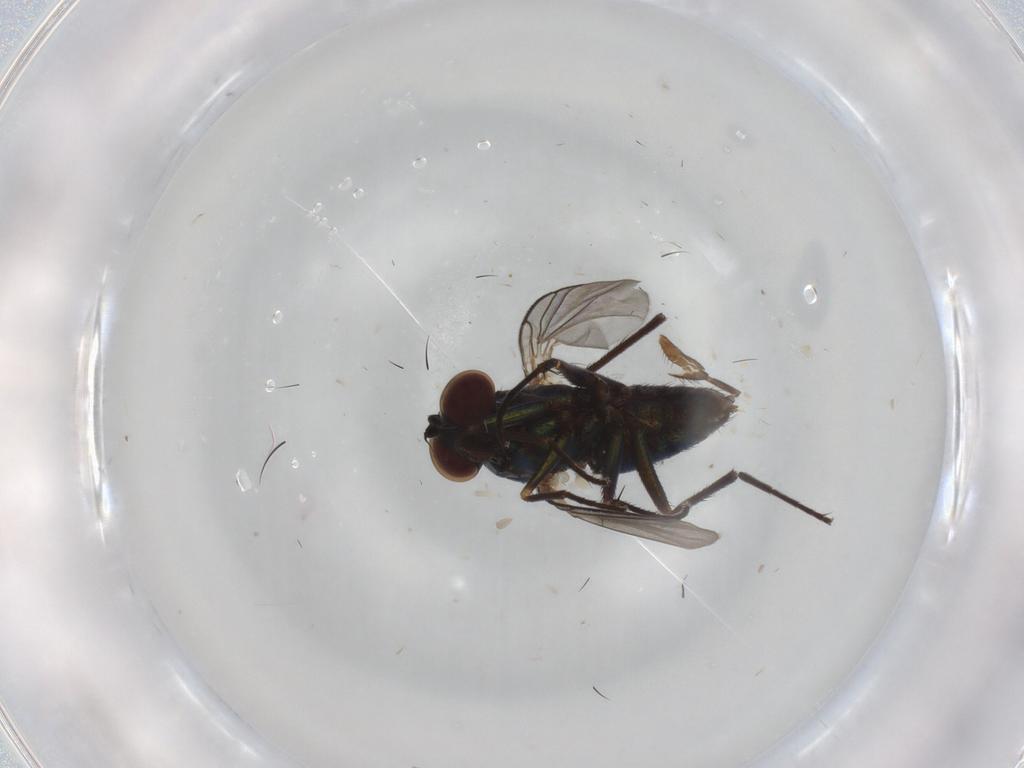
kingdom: Animalia
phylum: Arthropoda
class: Insecta
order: Diptera
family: Dolichopodidae
